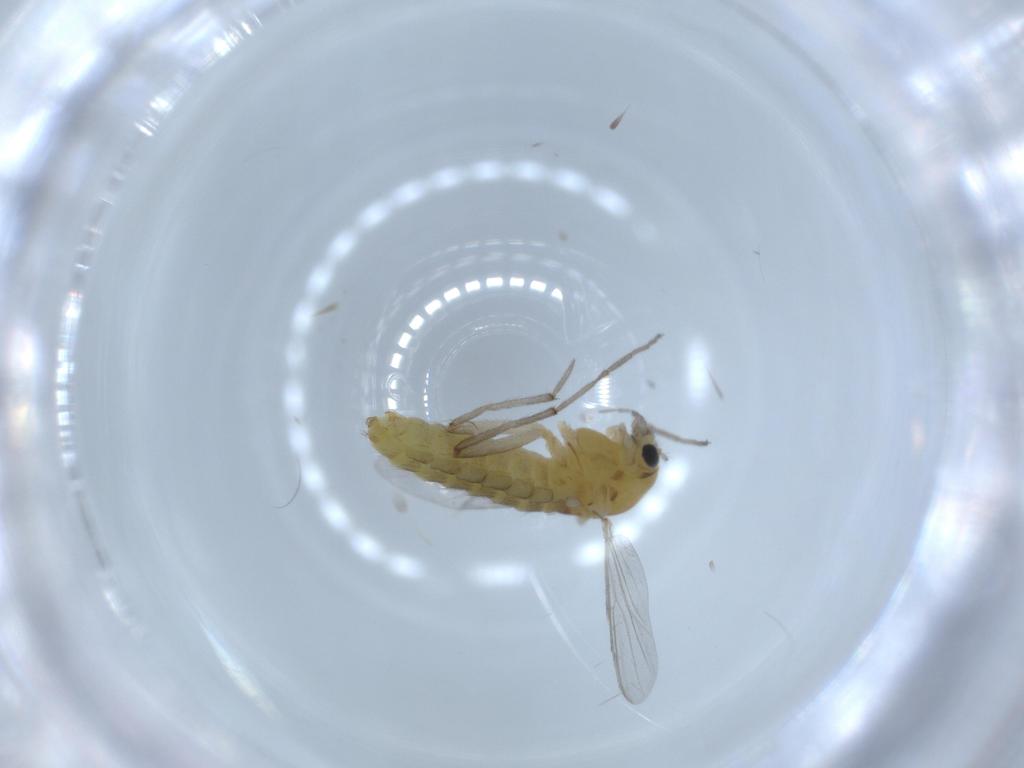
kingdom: Animalia
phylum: Arthropoda
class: Insecta
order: Diptera
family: Chironomidae
